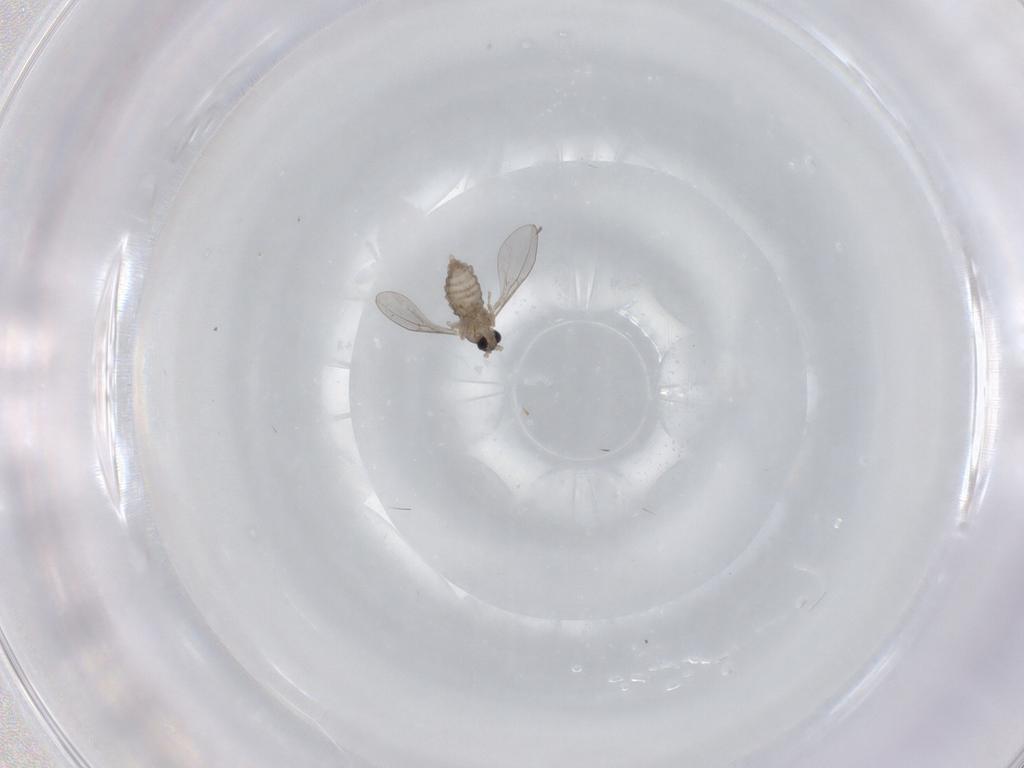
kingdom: Animalia
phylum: Arthropoda
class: Insecta
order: Diptera
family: Cecidomyiidae
